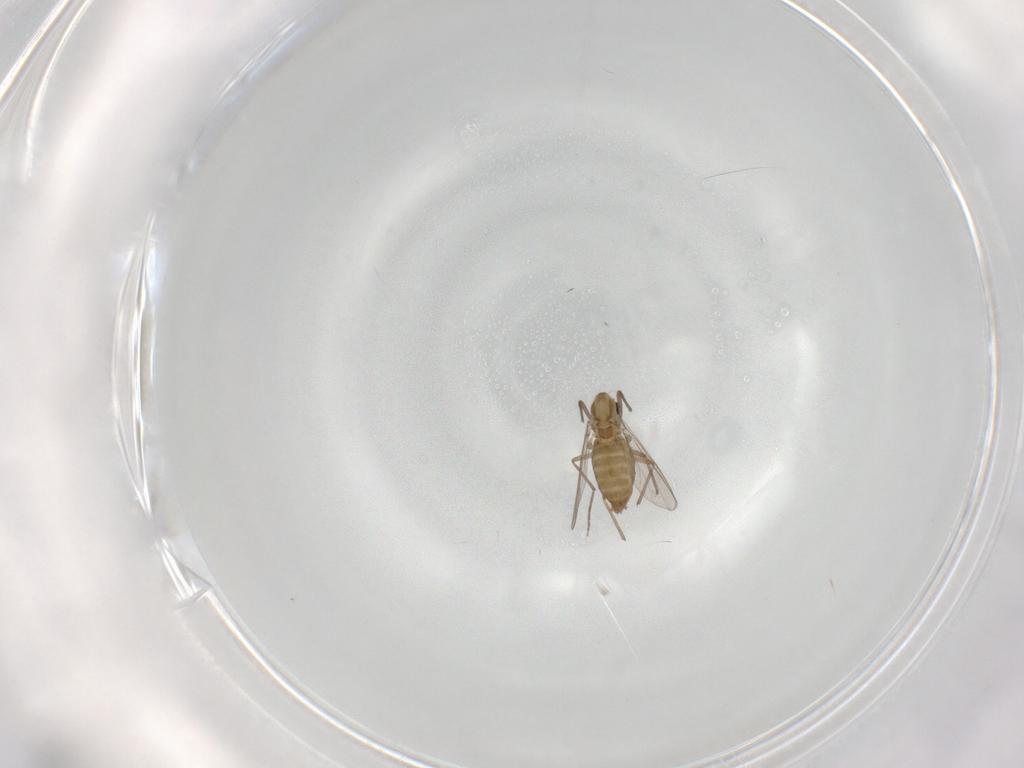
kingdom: Animalia
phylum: Arthropoda
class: Insecta
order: Diptera
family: Chironomidae
